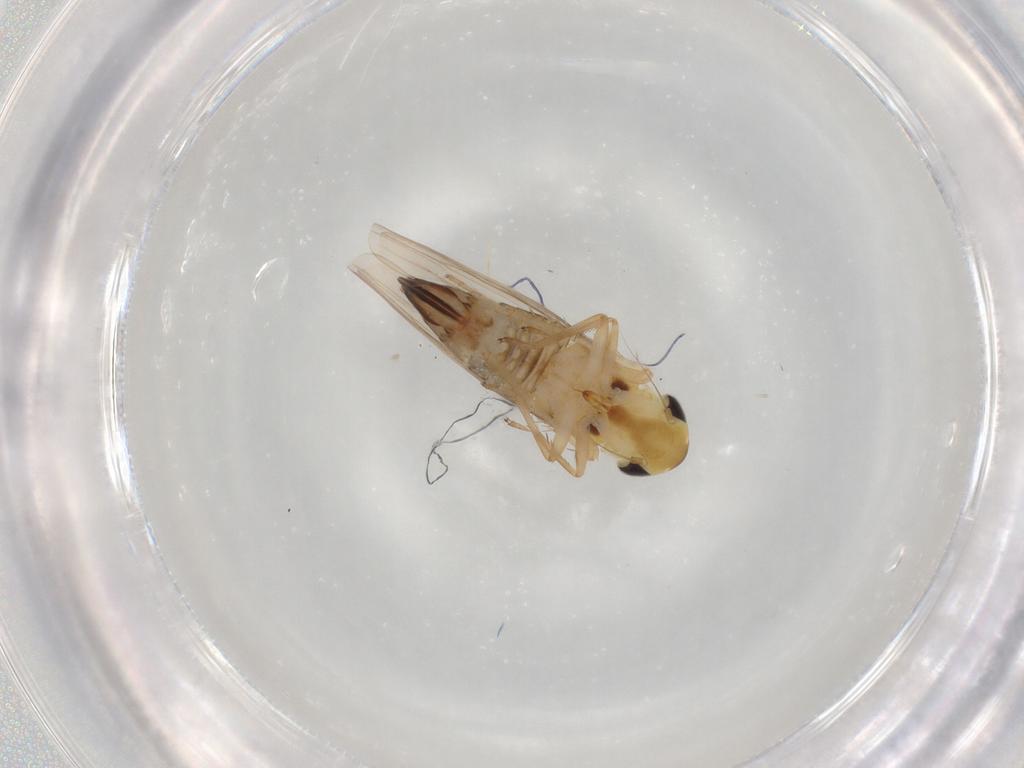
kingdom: Animalia
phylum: Arthropoda
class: Insecta
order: Hemiptera
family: Cicadellidae
